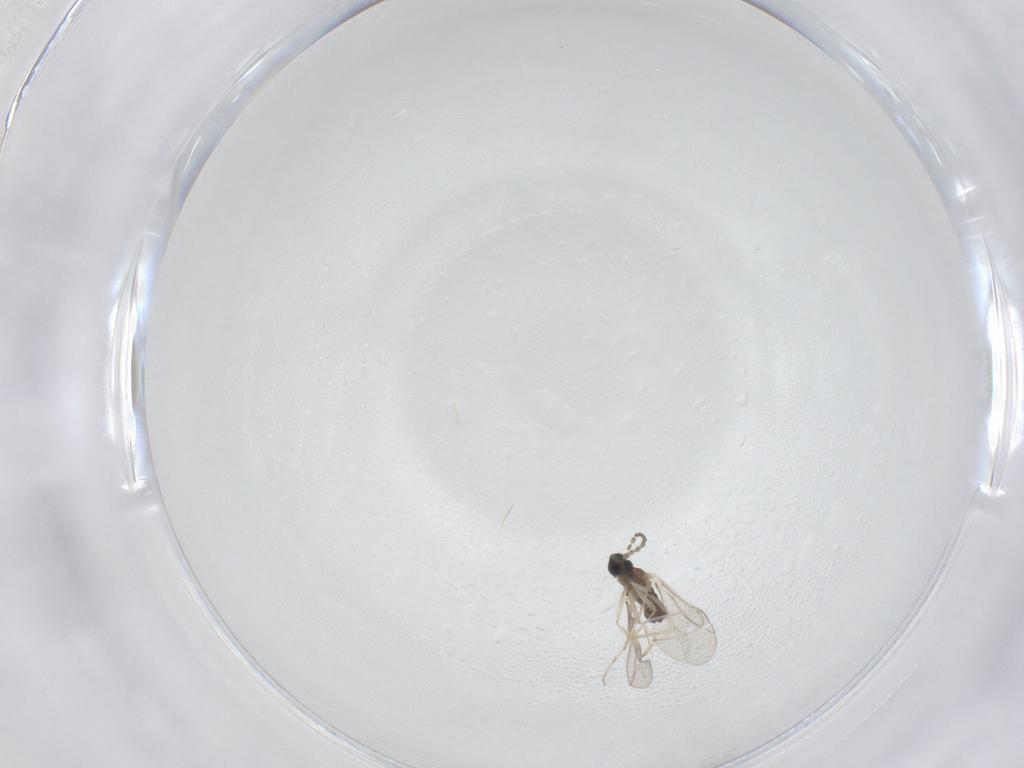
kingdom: Animalia
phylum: Arthropoda
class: Insecta
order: Diptera
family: Cecidomyiidae
